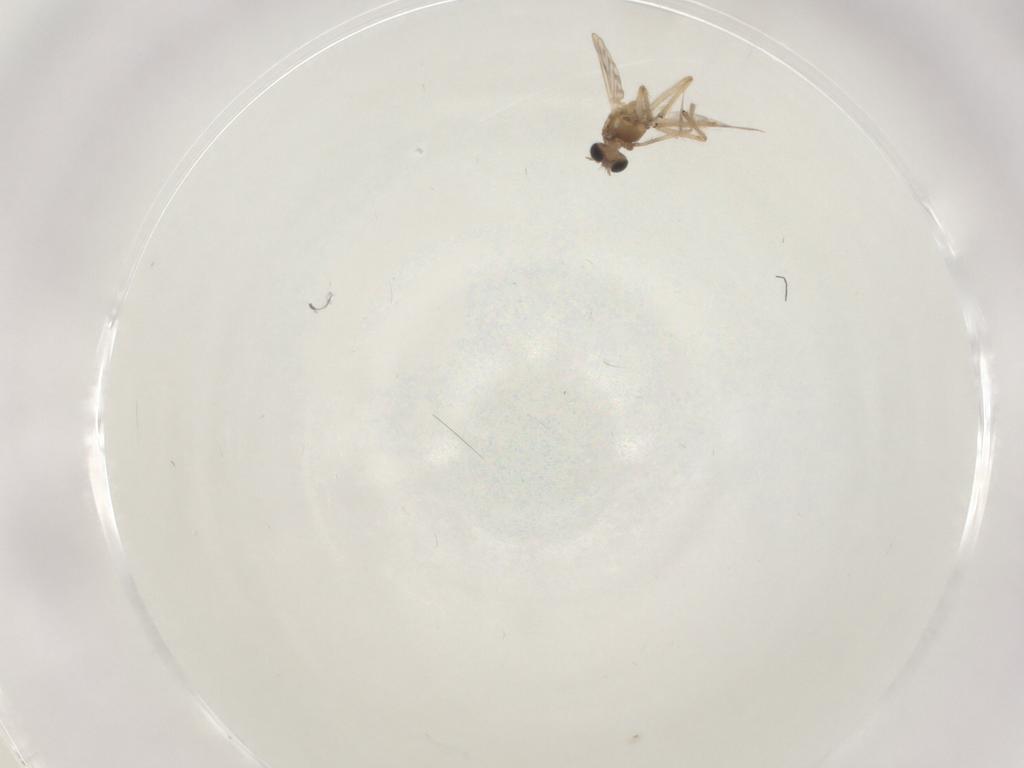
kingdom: Animalia
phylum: Arthropoda
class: Insecta
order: Diptera
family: Chironomidae
